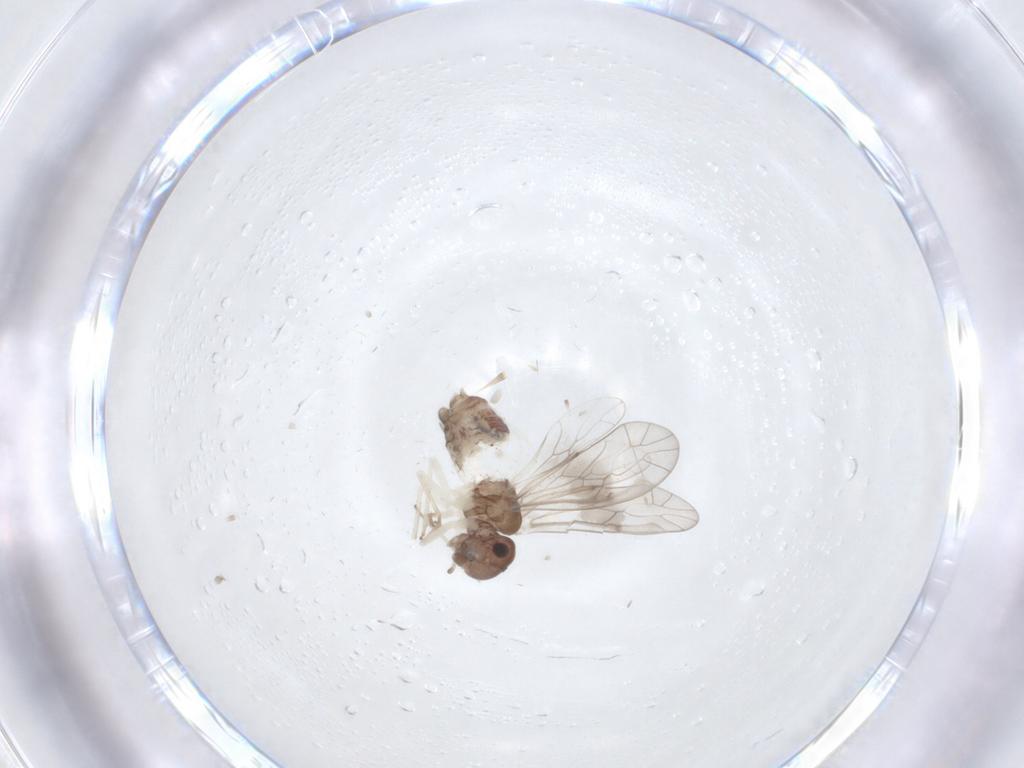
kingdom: Animalia
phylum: Arthropoda
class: Insecta
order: Psocodea
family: Peripsocidae
